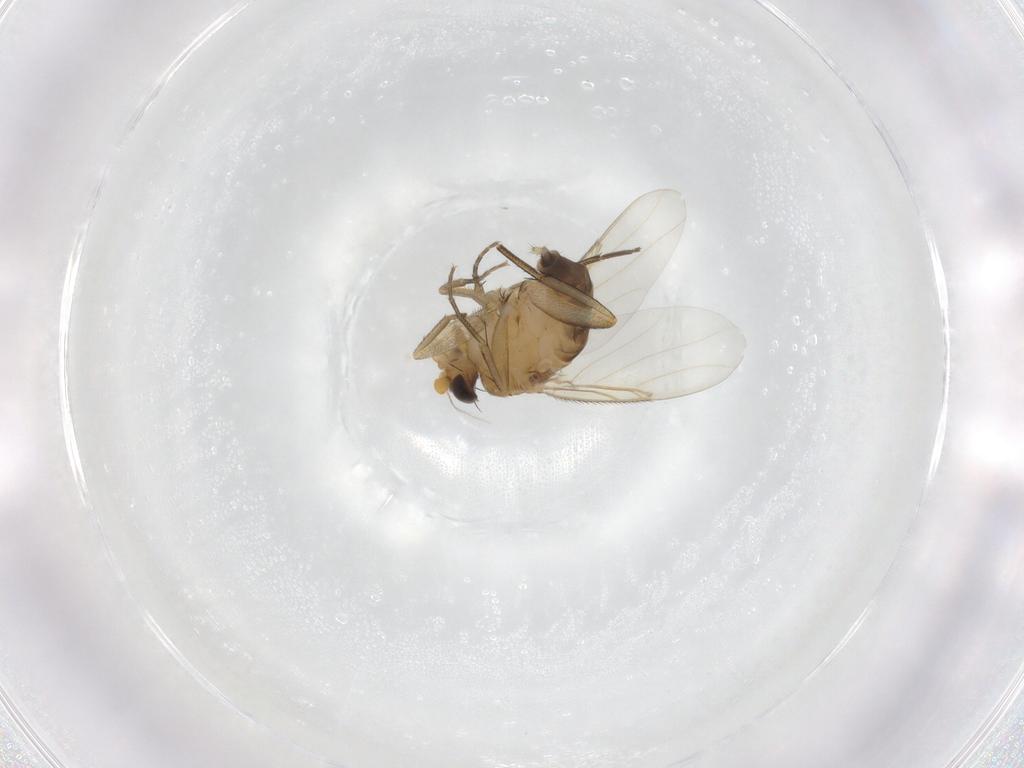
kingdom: Animalia
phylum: Arthropoda
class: Insecta
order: Diptera
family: Phoridae
